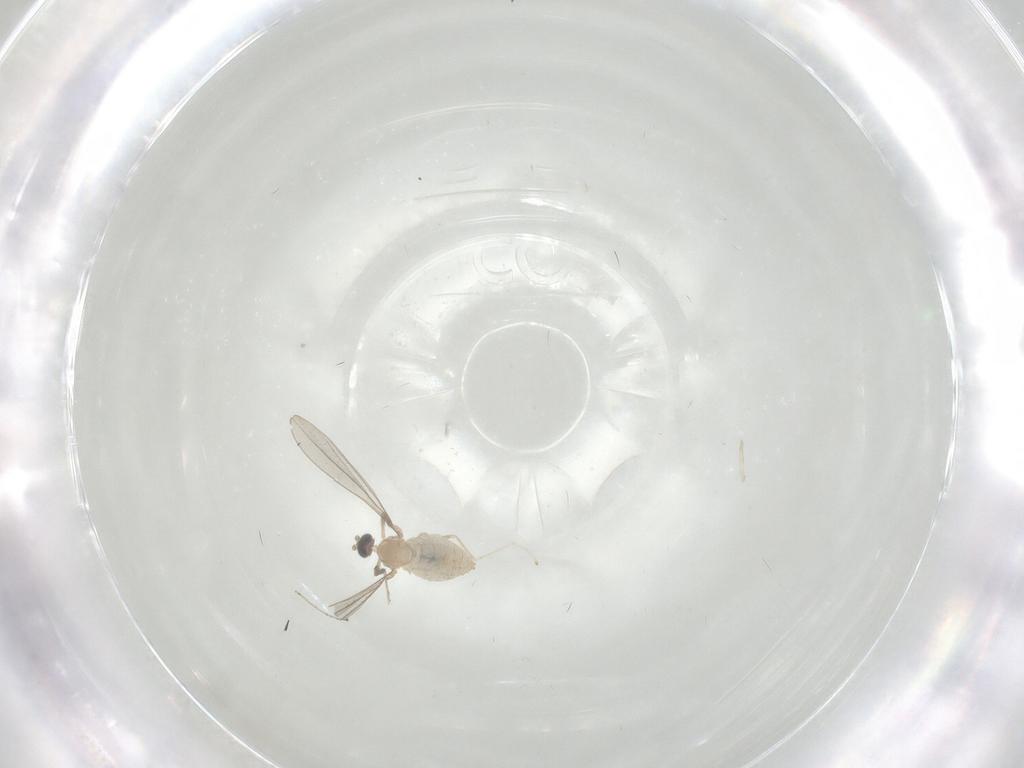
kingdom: Animalia
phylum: Arthropoda
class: Insecta
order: Diptera
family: Cecidomyiidae
